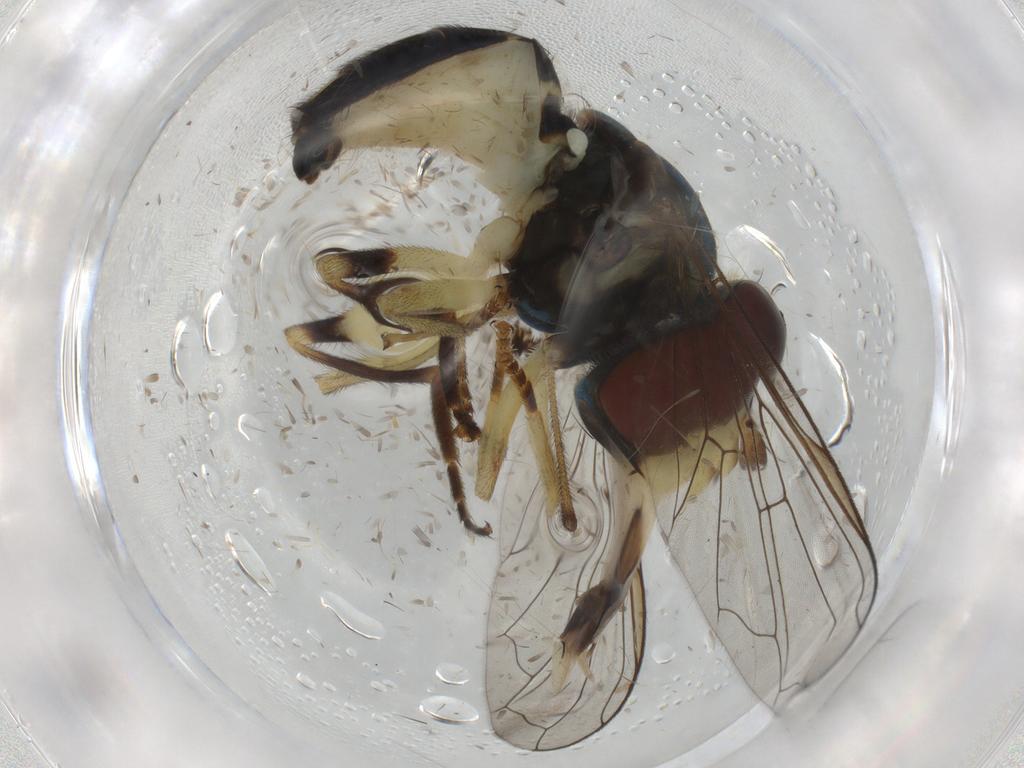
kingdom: Animalia
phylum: Arthropoda
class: Insecta
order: Diptera
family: Psychodidae
